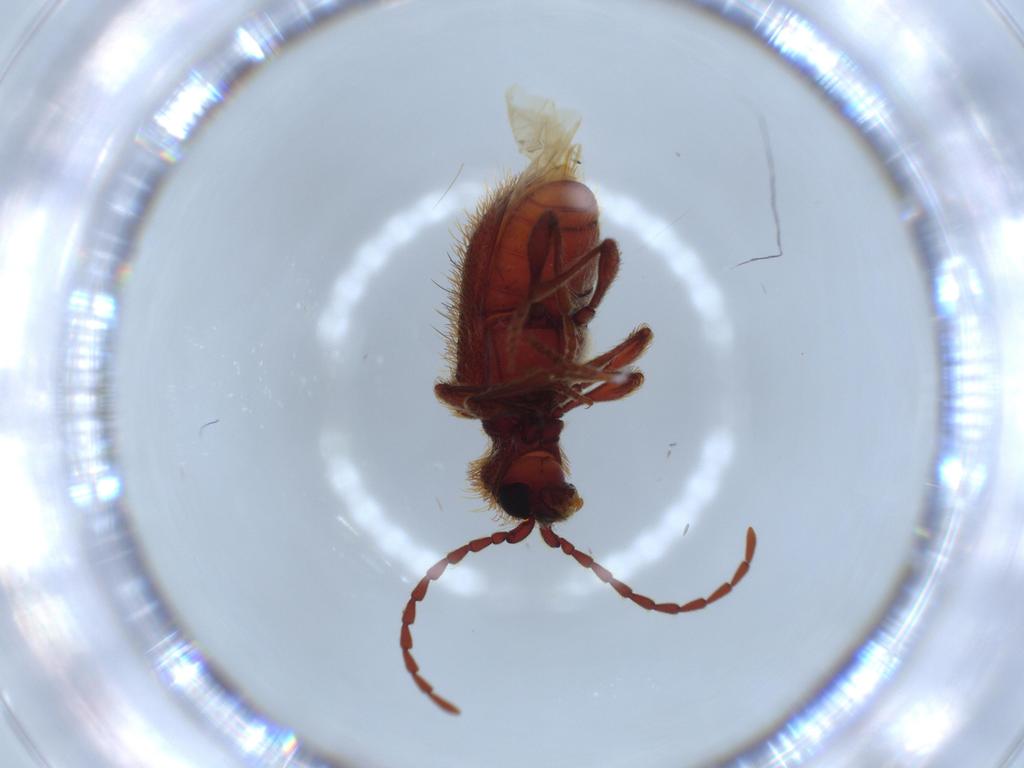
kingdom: Animalia
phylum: Arthropoda
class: Insecta
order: Coleoptera
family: Ptinidae
